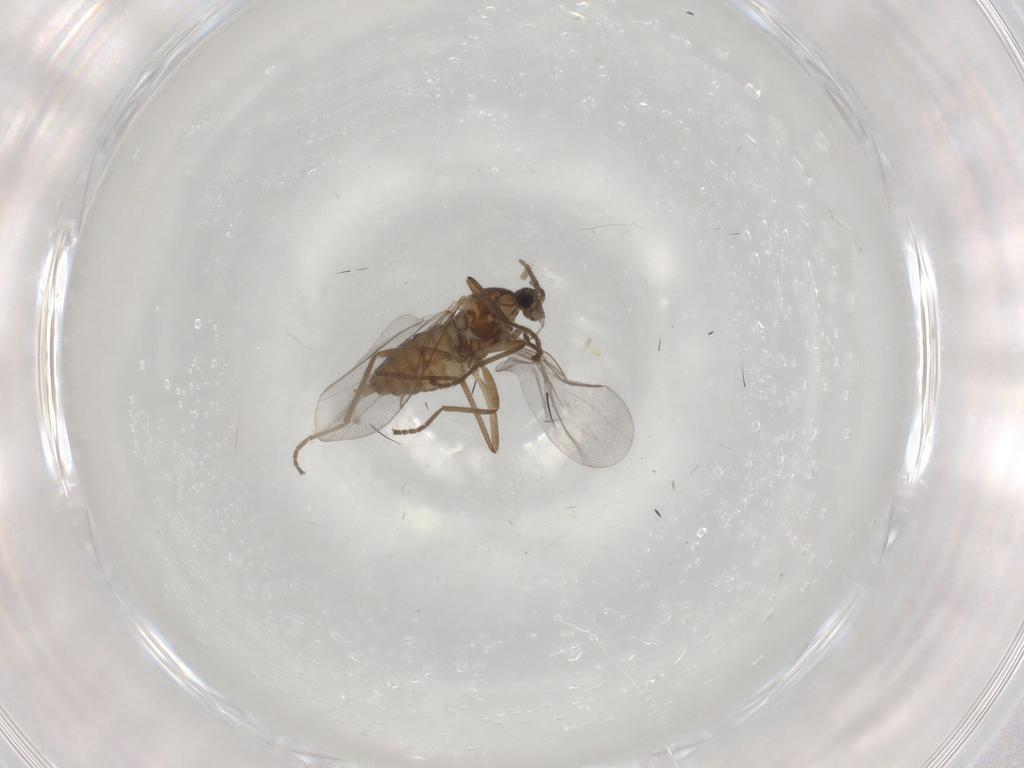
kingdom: Animalia
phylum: Arthropoda
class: Insecta
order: Diptera
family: Cecidomyiidae
